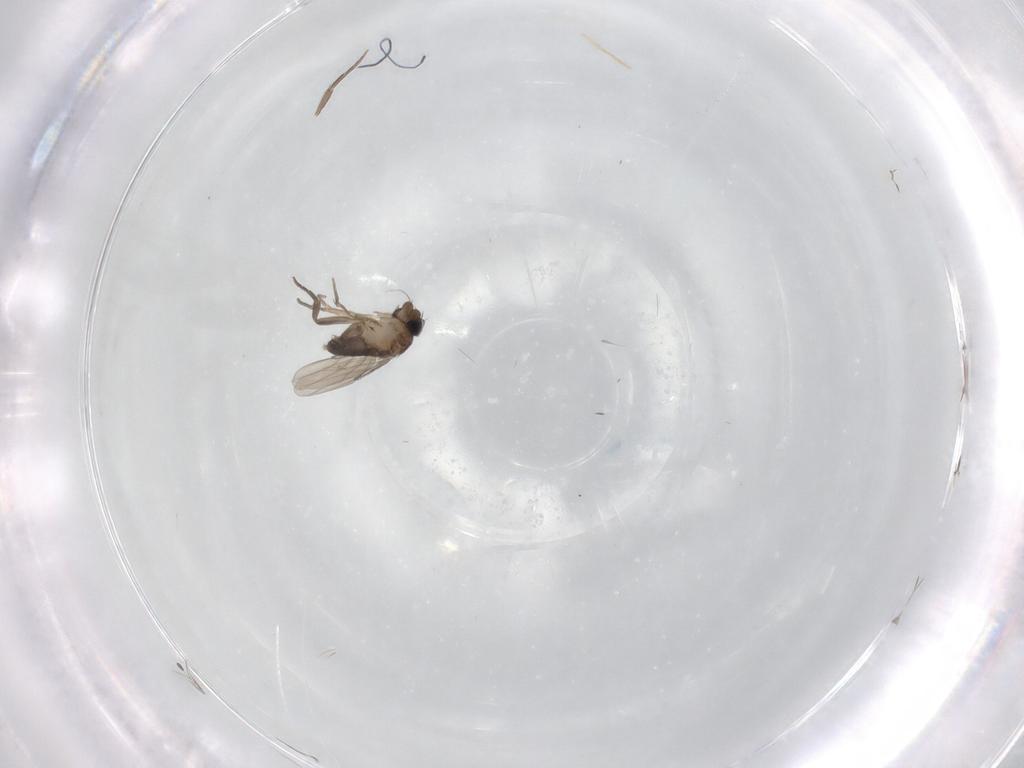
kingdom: Animalia
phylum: Arthropoda
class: Insecta
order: Diptera
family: Phoridae
